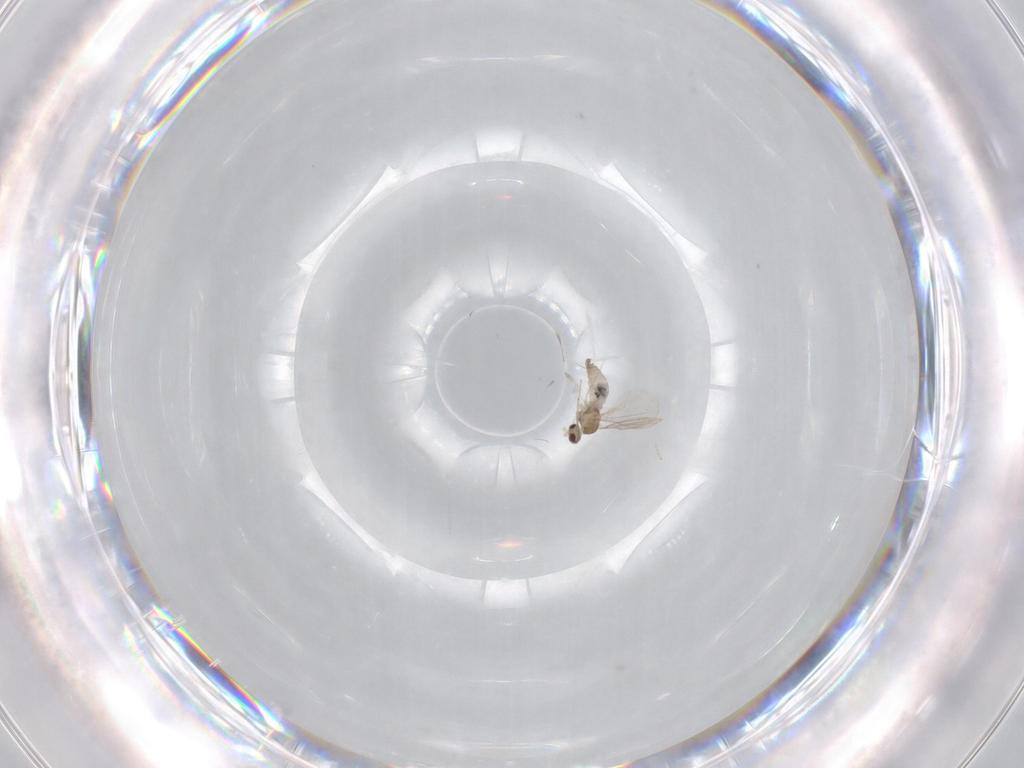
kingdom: Animalia
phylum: Arthropoda
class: Insecta
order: Diptera
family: Cecidomyiidae
